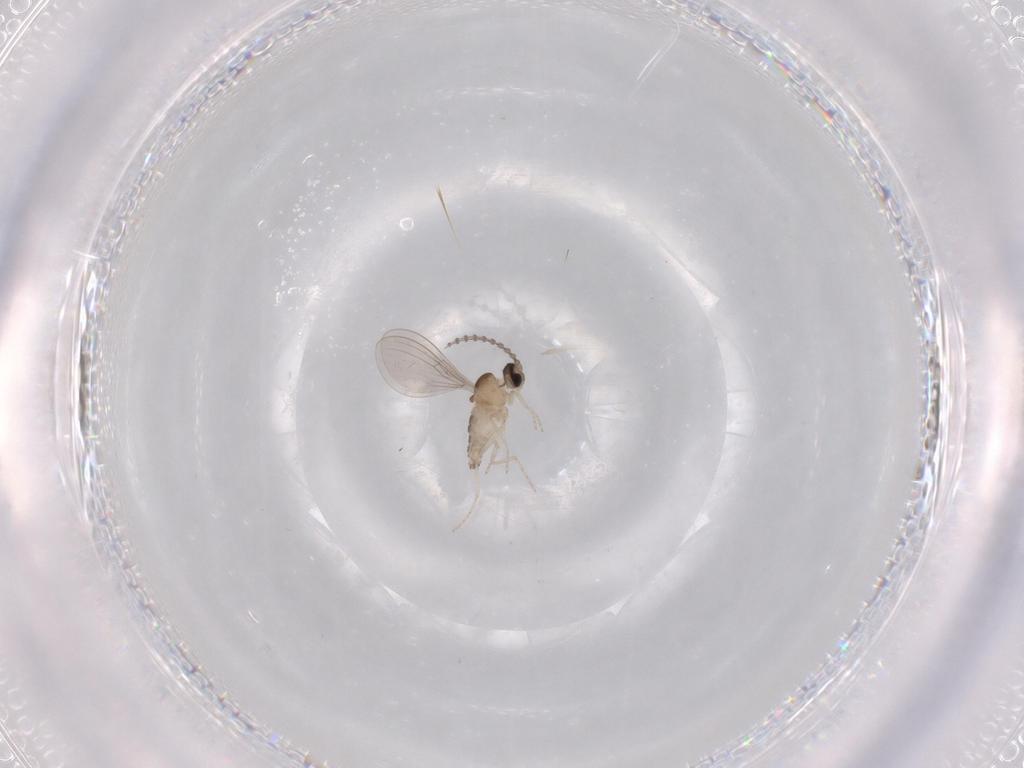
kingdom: Animalia
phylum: Arthropoda
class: Insecta
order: Diptera
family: Cecidomyiidae
